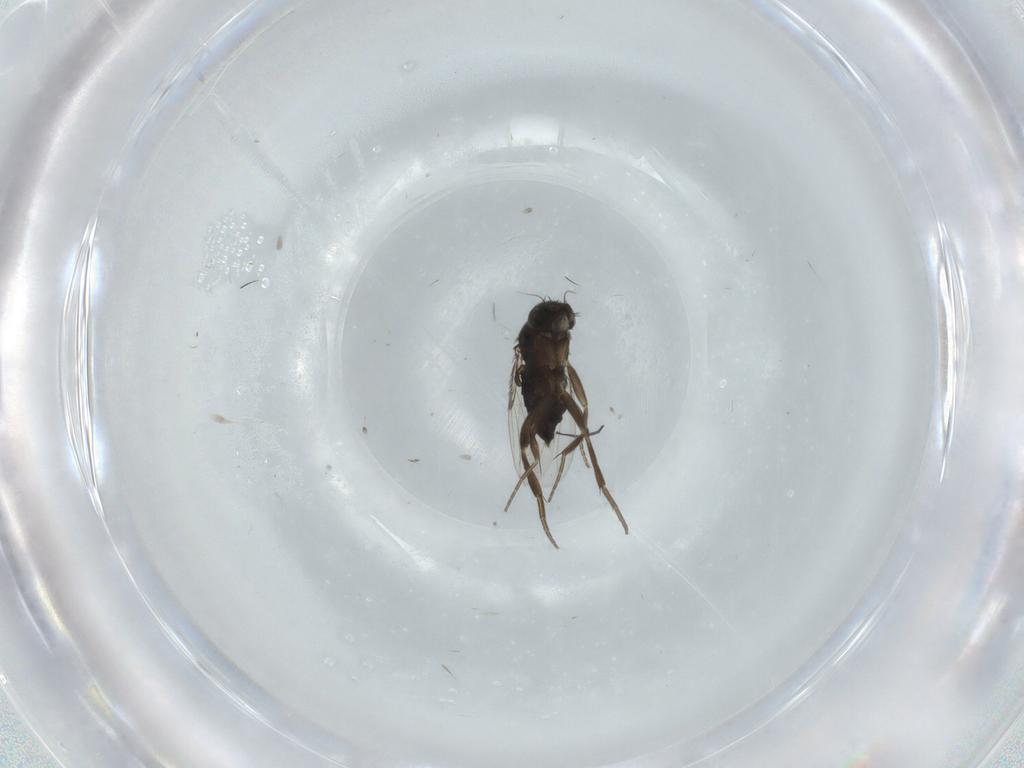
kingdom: Animalia
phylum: Arthropoda
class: Insecta
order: Diptera
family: Phoridae
